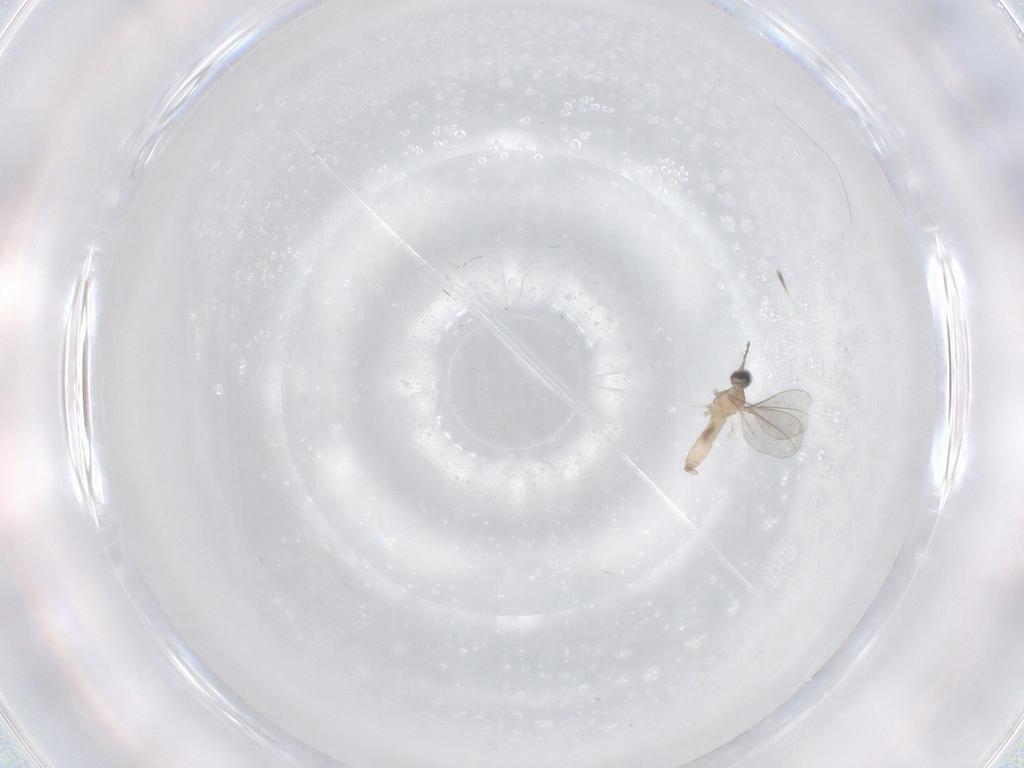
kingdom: Animalia
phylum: Arthropoda
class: Insecta
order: Diptera
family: Cecidomyiidae
